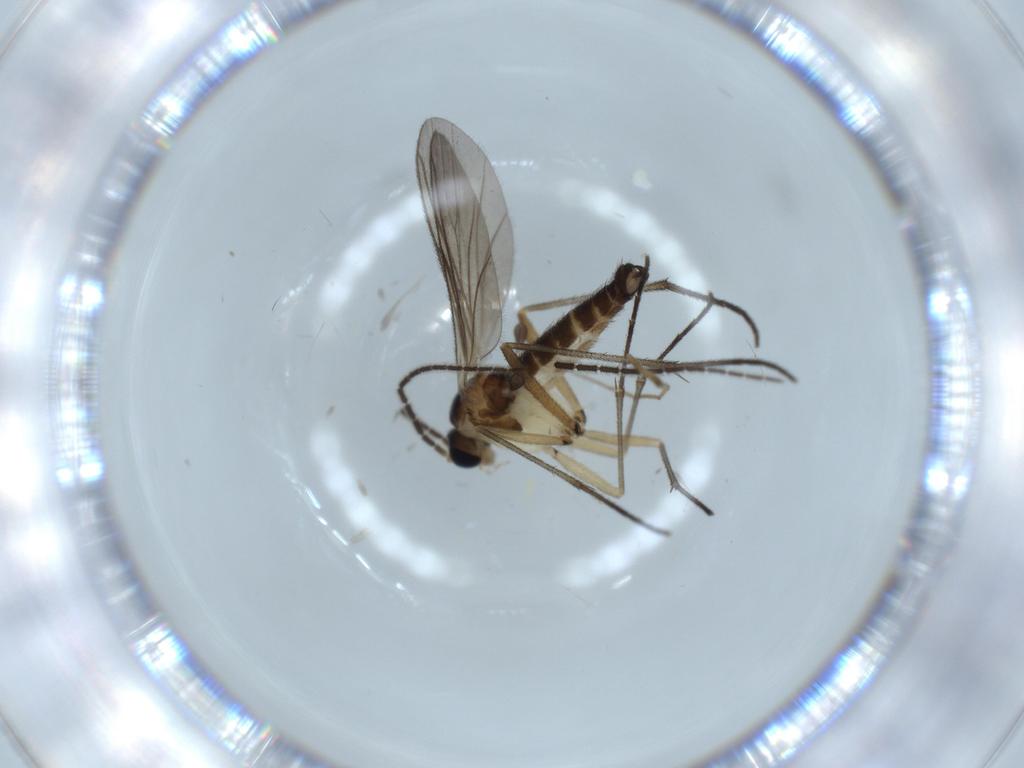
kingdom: Animalia
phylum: Arthropoda
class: Insecta
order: Diptera
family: Sciaridae
